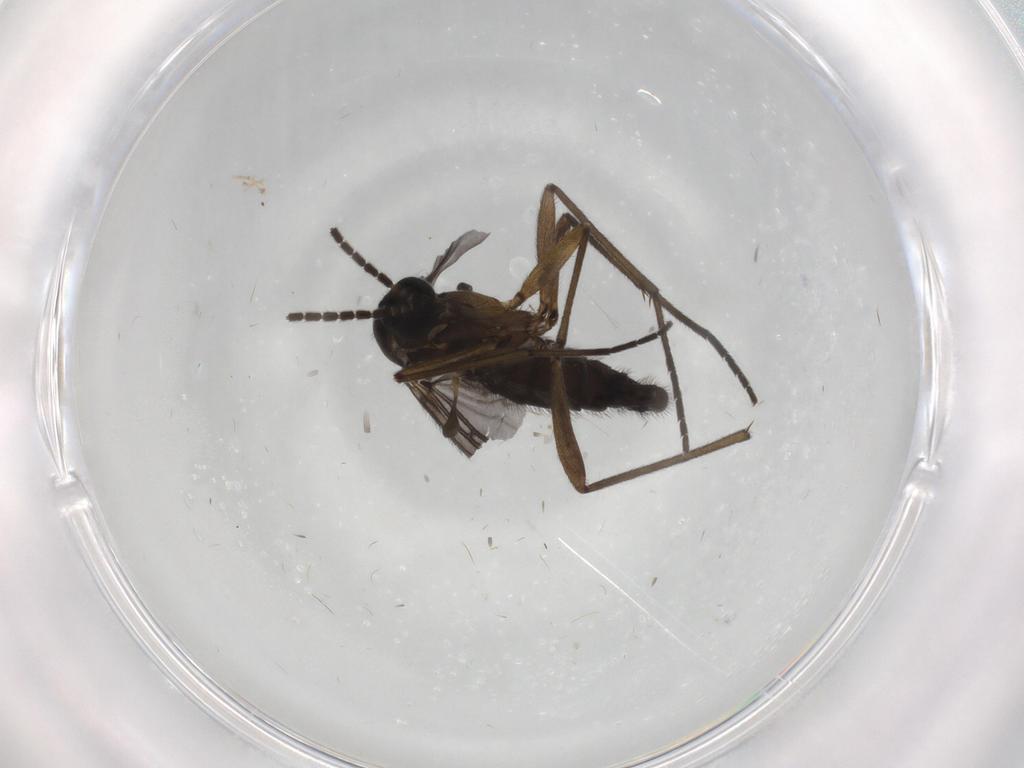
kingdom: Animalia
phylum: Arthropoda
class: Insecta
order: Diptera
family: Sciaridae
